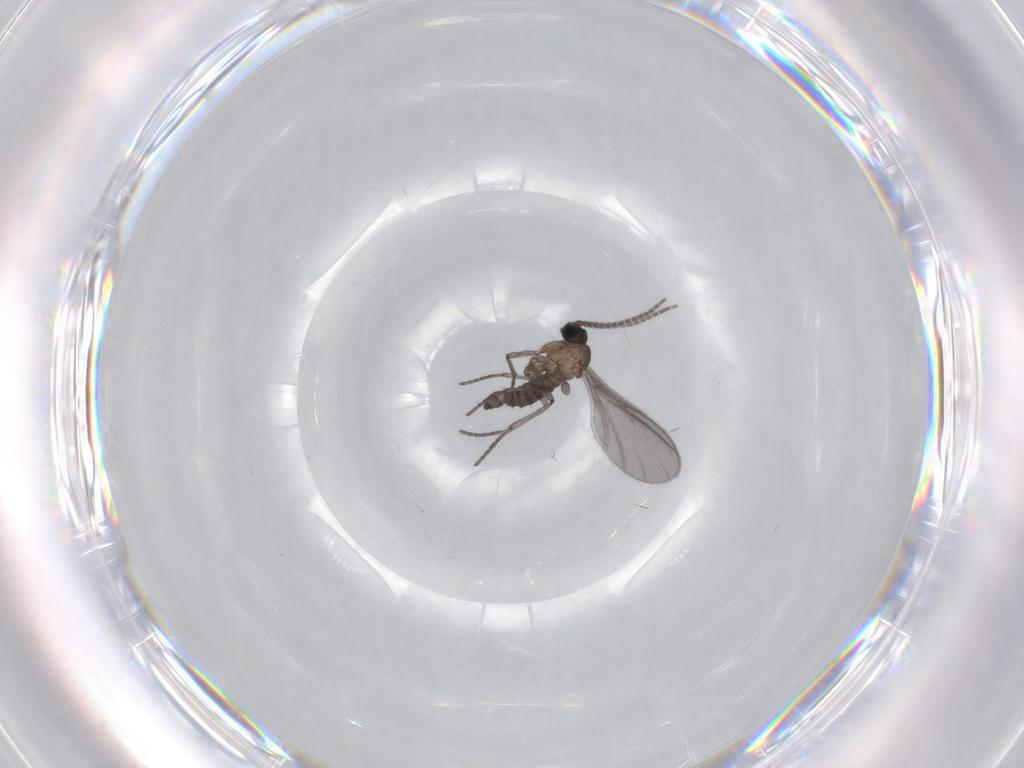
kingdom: Animalia
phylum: Arthropoda
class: Insecta
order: Diptera
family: Sciaridae
